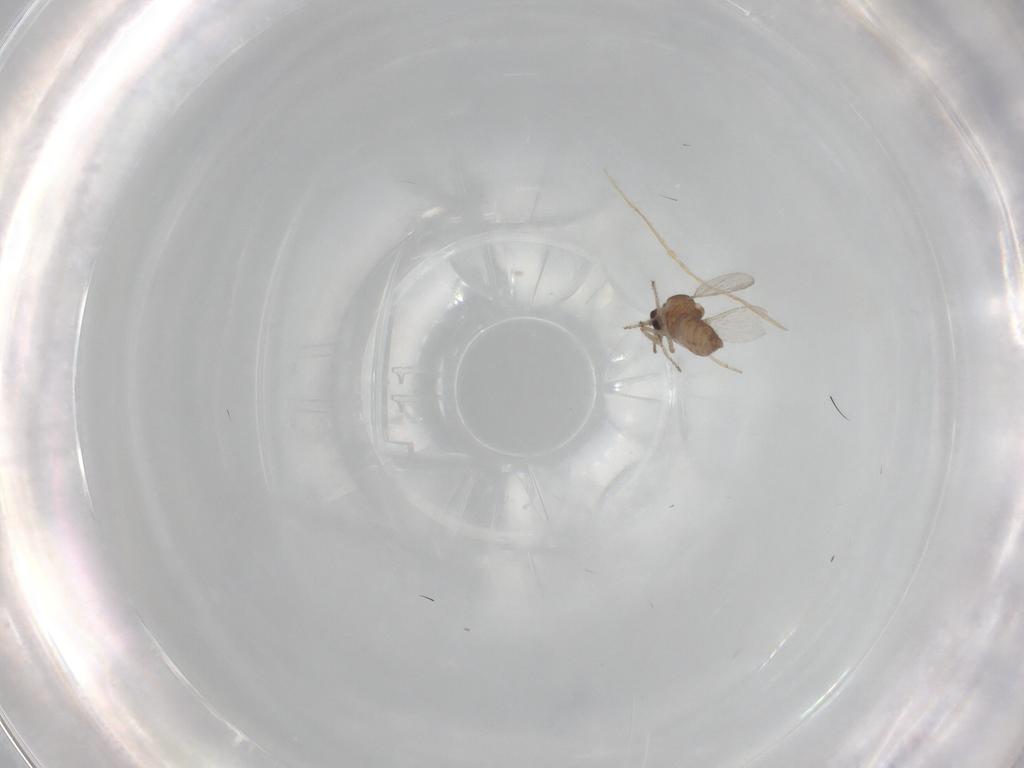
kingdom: Animalia
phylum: Arthropoda
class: Insecta
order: Diptera
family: Ceratopogonidae
